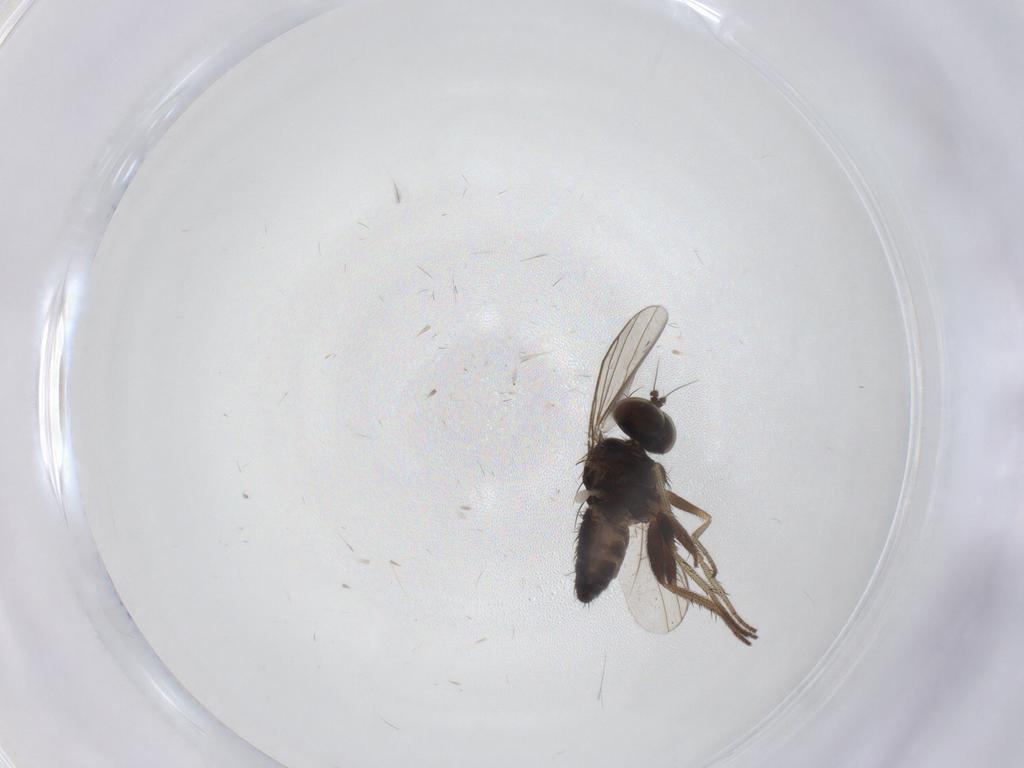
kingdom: Animalia
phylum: Arthropoda
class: Insecta
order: Diptera
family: Dolichopodidae
